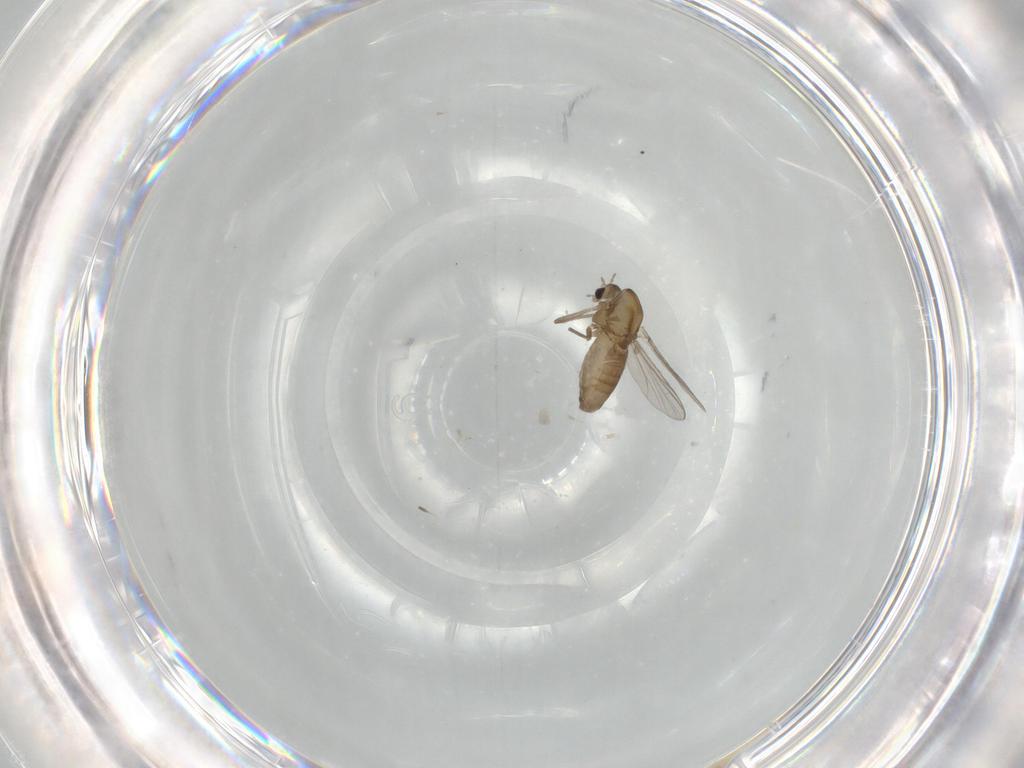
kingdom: Animalia
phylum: Arthropoda
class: Insecta
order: Diptera
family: Chironomidae
